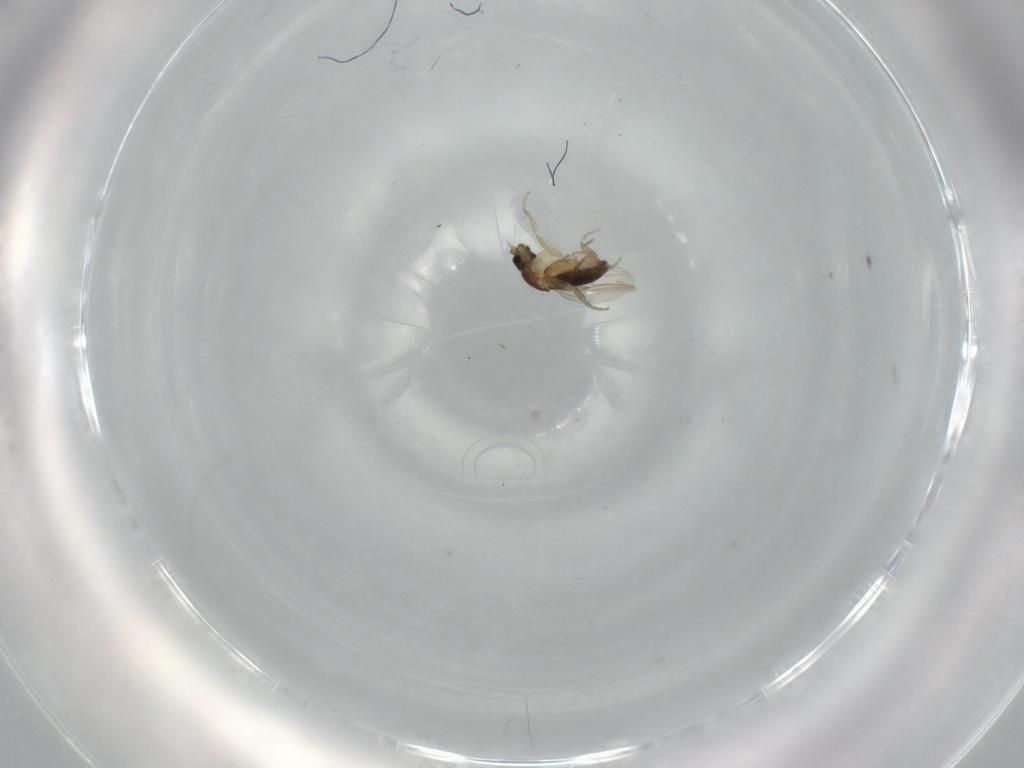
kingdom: Animalia
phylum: Arthropoda
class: Insecta
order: Diptera
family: Phoridae
